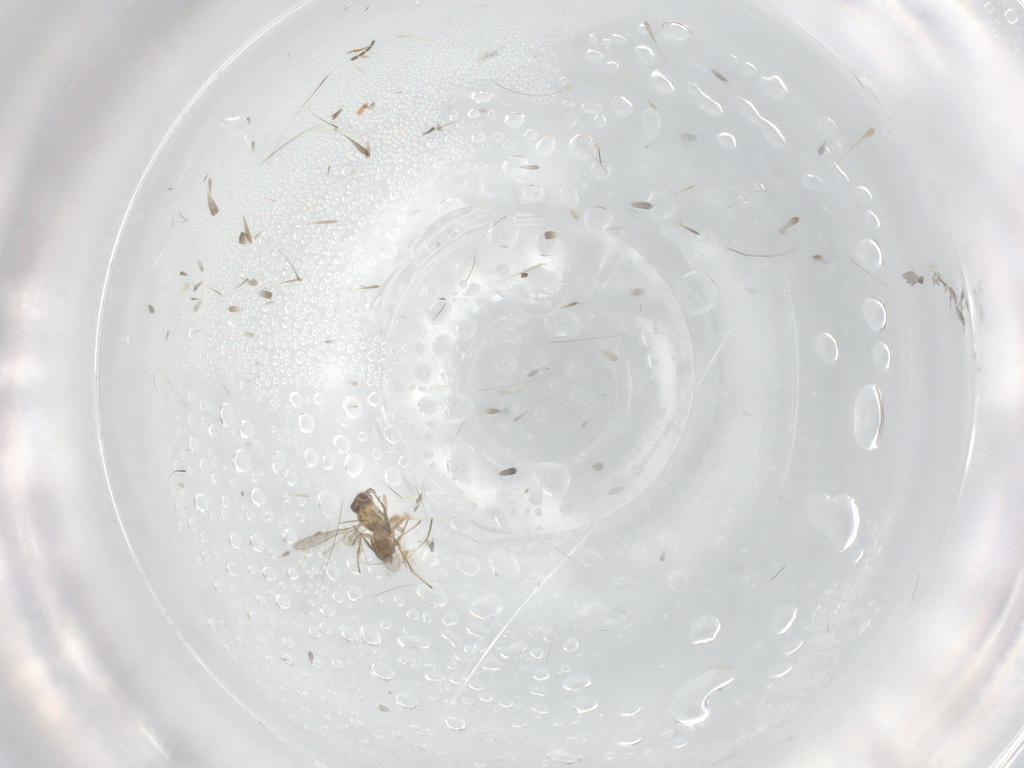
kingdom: Animalia
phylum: Arthropoda
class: Insecta
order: Hymenoptera
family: Mymaridae
